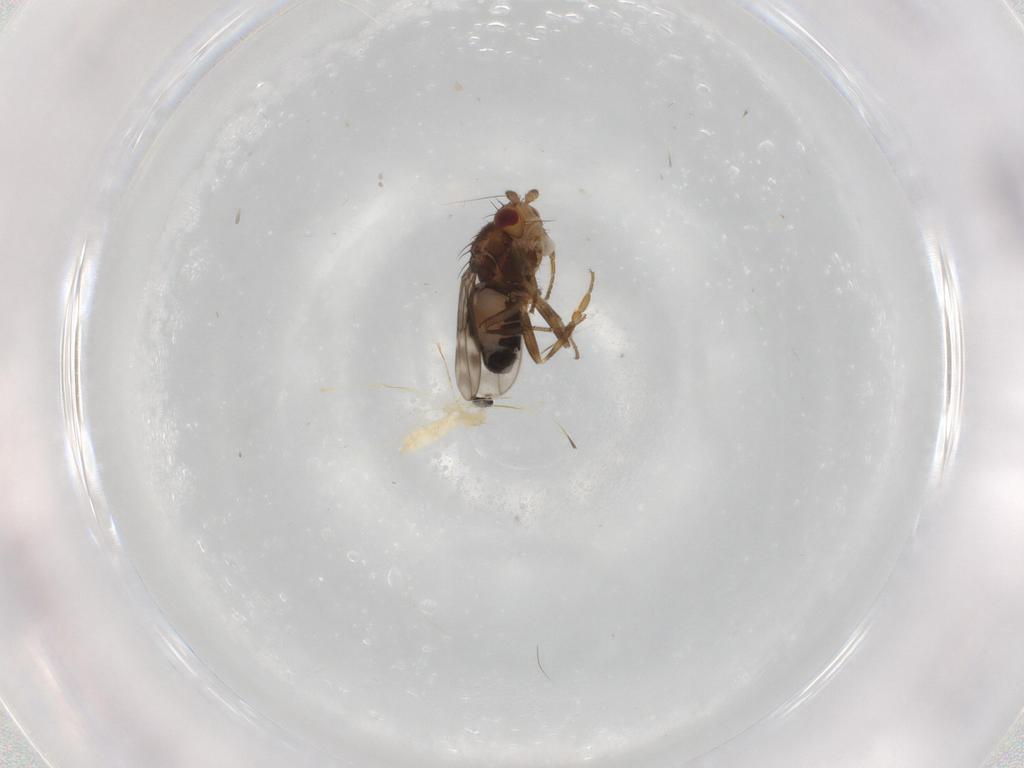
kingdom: Animalia
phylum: Arthropoda
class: Insecta
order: Diptera
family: Sphaeroceridae
